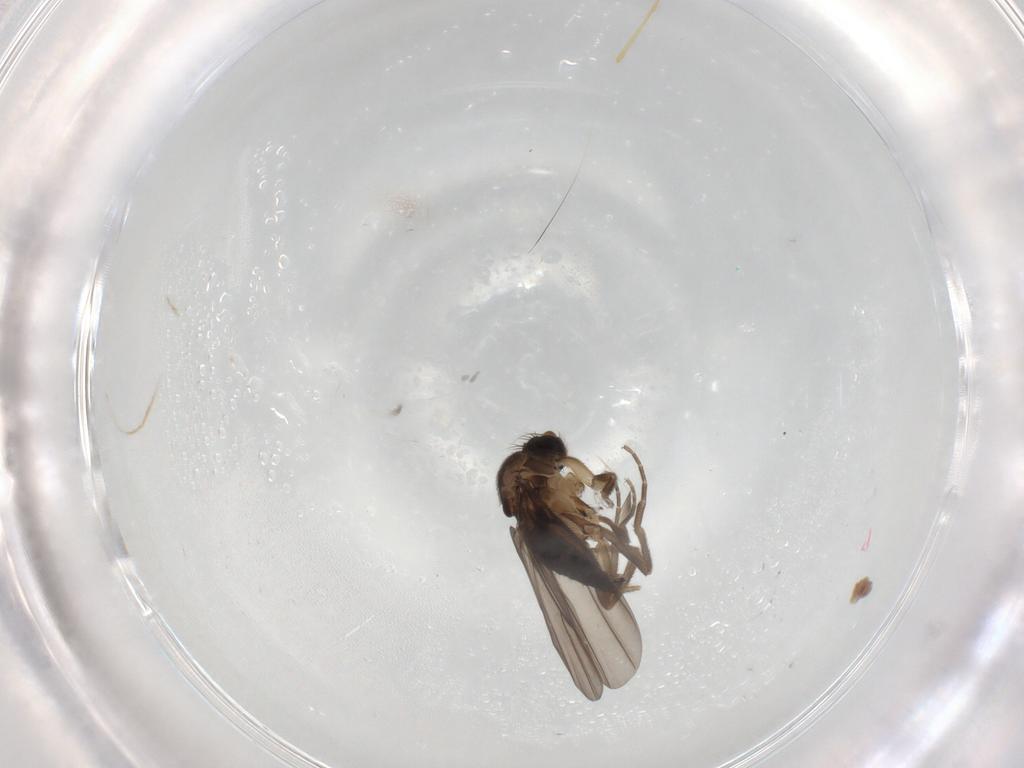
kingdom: Animalia
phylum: Arthropoda
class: Insecta
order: Diptera
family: Phoridae
